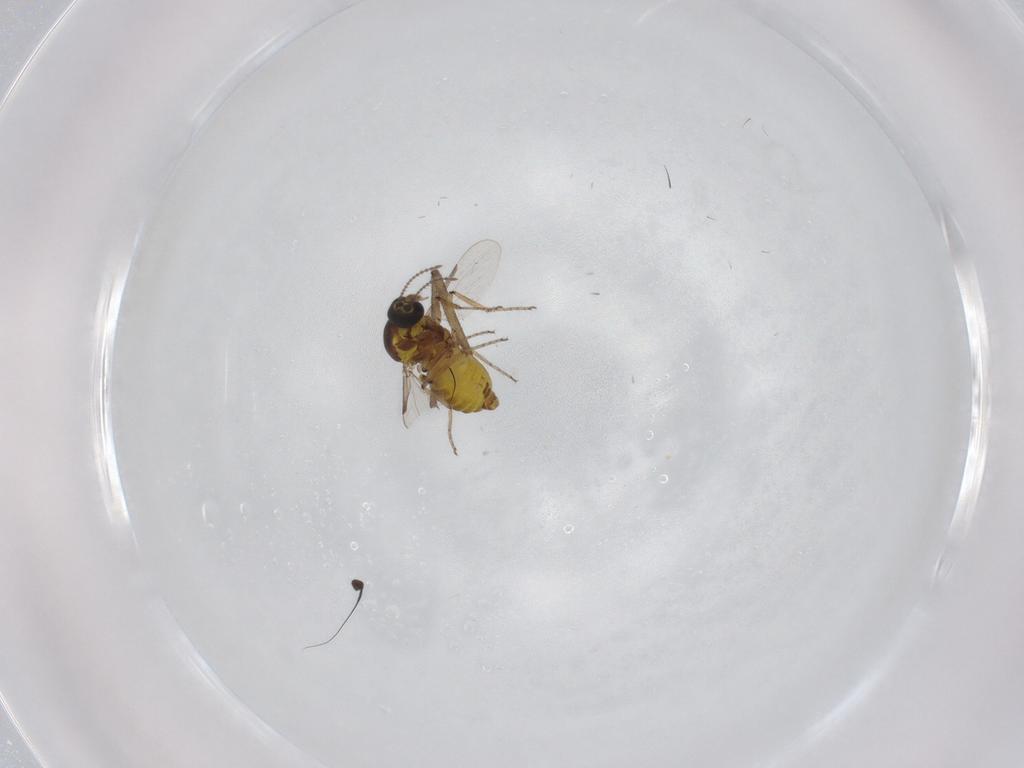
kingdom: Animalia
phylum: Arthropoda
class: Insecta
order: Diptera
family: Ceratopogonidae
